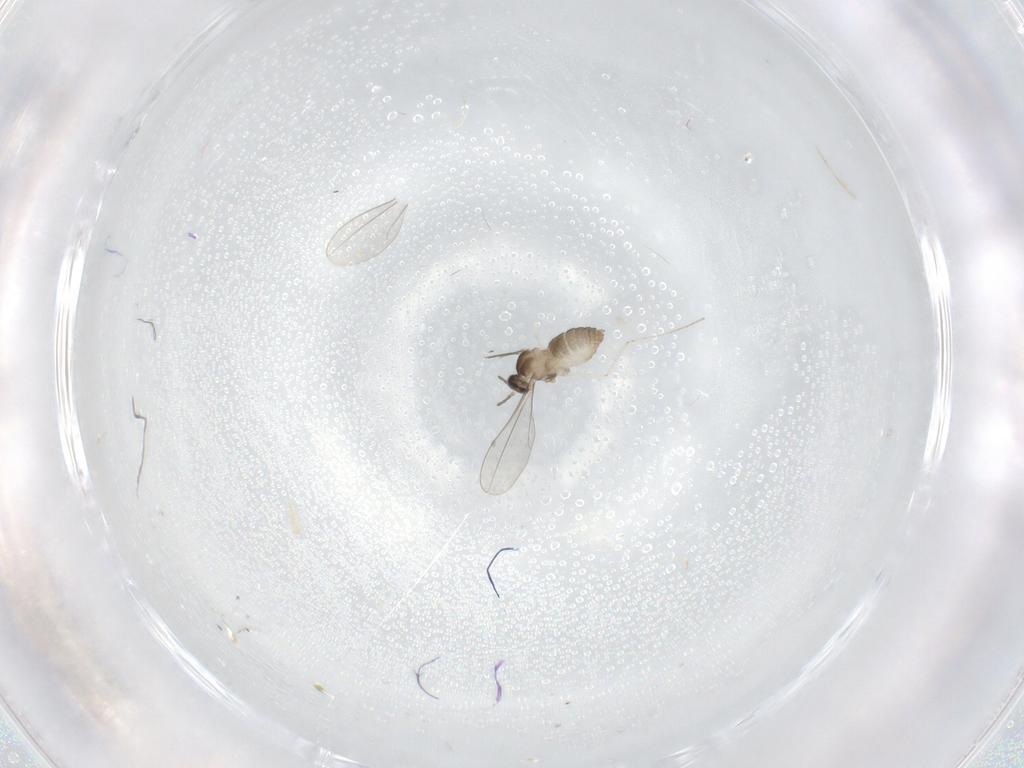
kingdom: Animalia
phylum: Arthropoda
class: Insecta
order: Diptera
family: Cecidomyiidae
